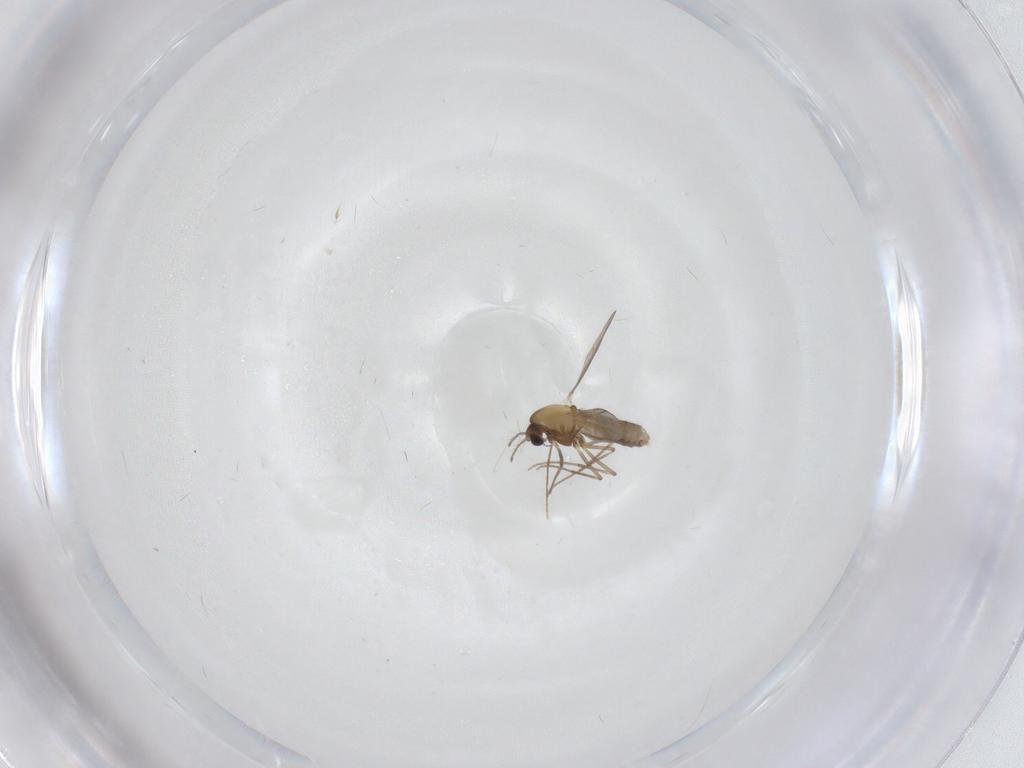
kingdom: Animalia
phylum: Arthropoda
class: Insecta
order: Diptera
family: Chironomidae
